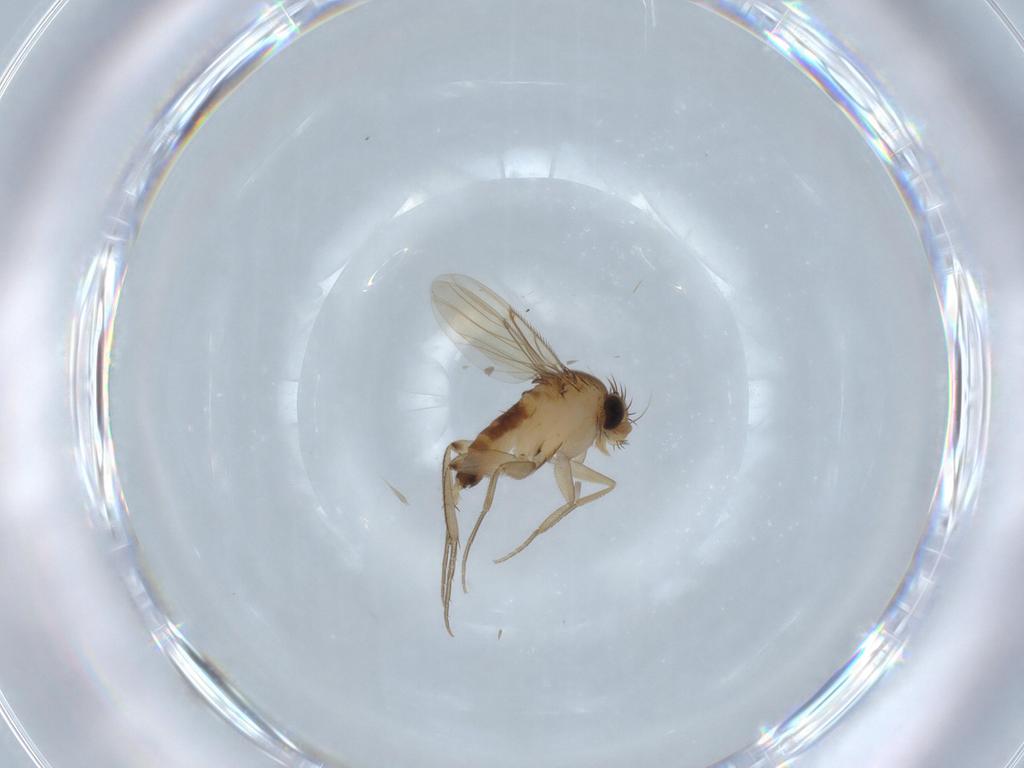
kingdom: Animalia
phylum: Arthropoda
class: Insecta
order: Diptera
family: Phoridae
